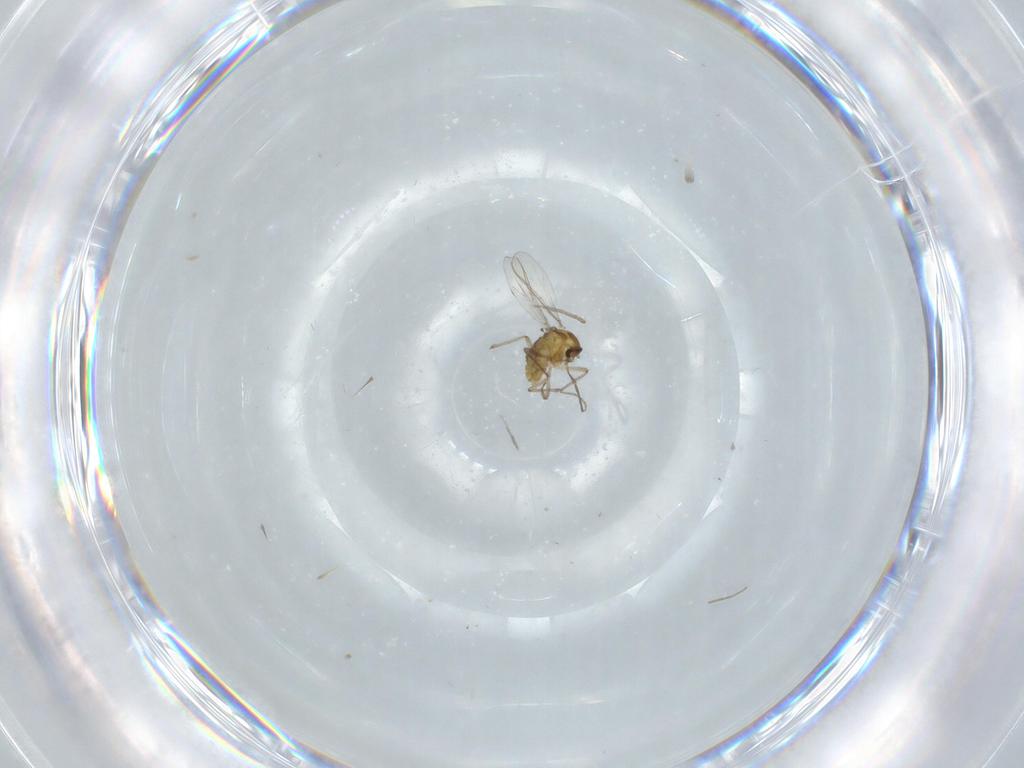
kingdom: Animalia
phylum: Arthropoda
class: Insecta
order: Diptera
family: Chironomidae
